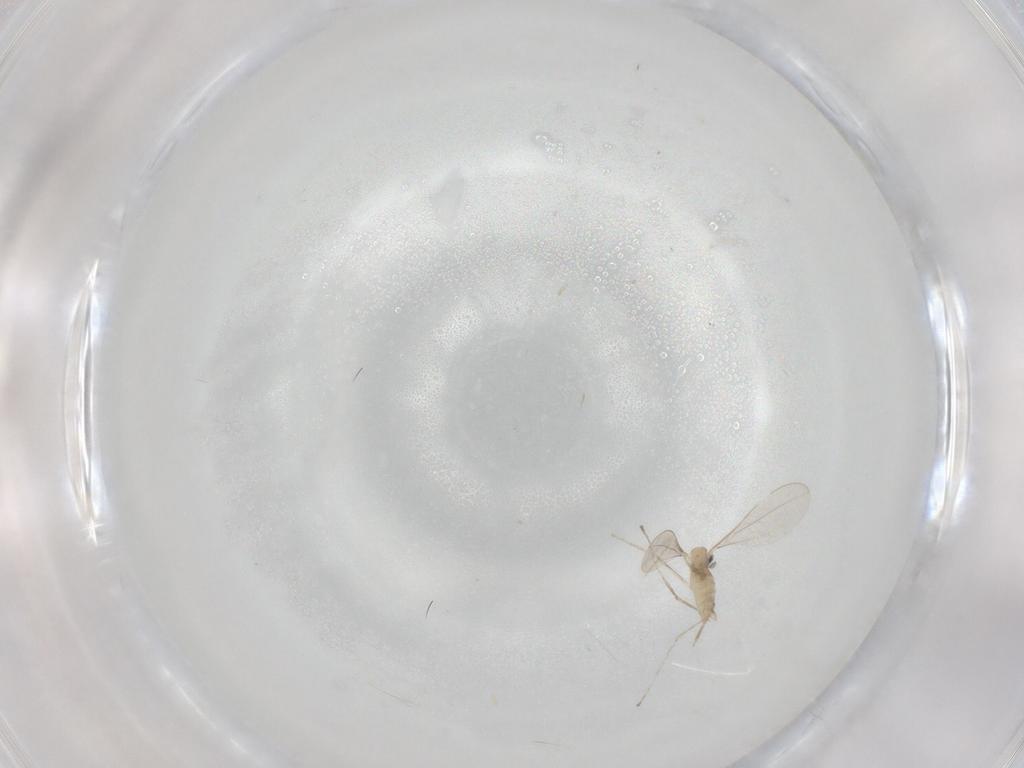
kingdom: Animalia
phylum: Arthropoda
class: Insecta
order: Diptera
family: Cecidomyiidae
